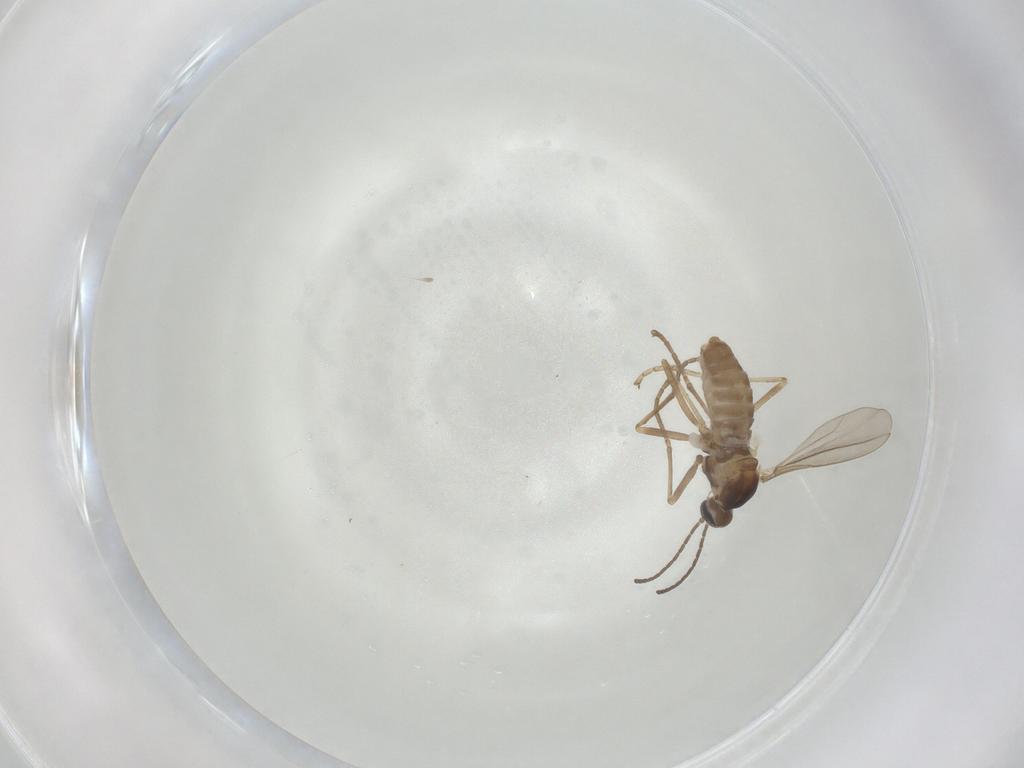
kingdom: Animalia
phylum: Arthropoda
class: Insecta
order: Diptera
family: Cecidomyiidae
